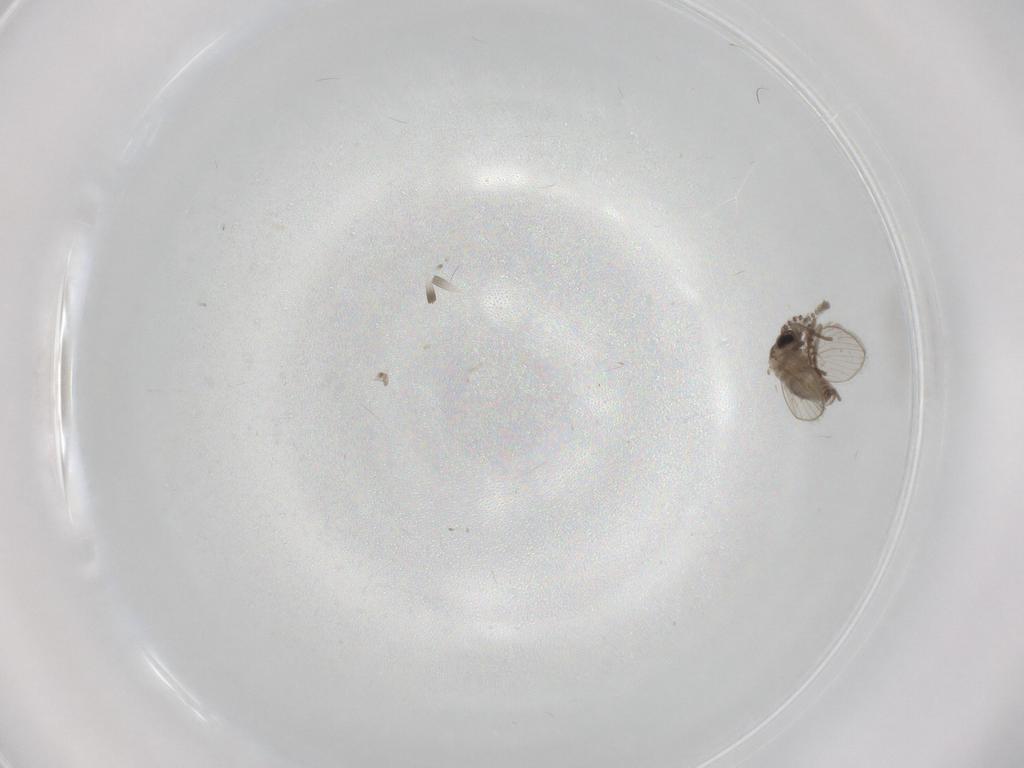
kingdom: Animalia
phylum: Arthropoda
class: Insecta
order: Diptera
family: Psychodidae
